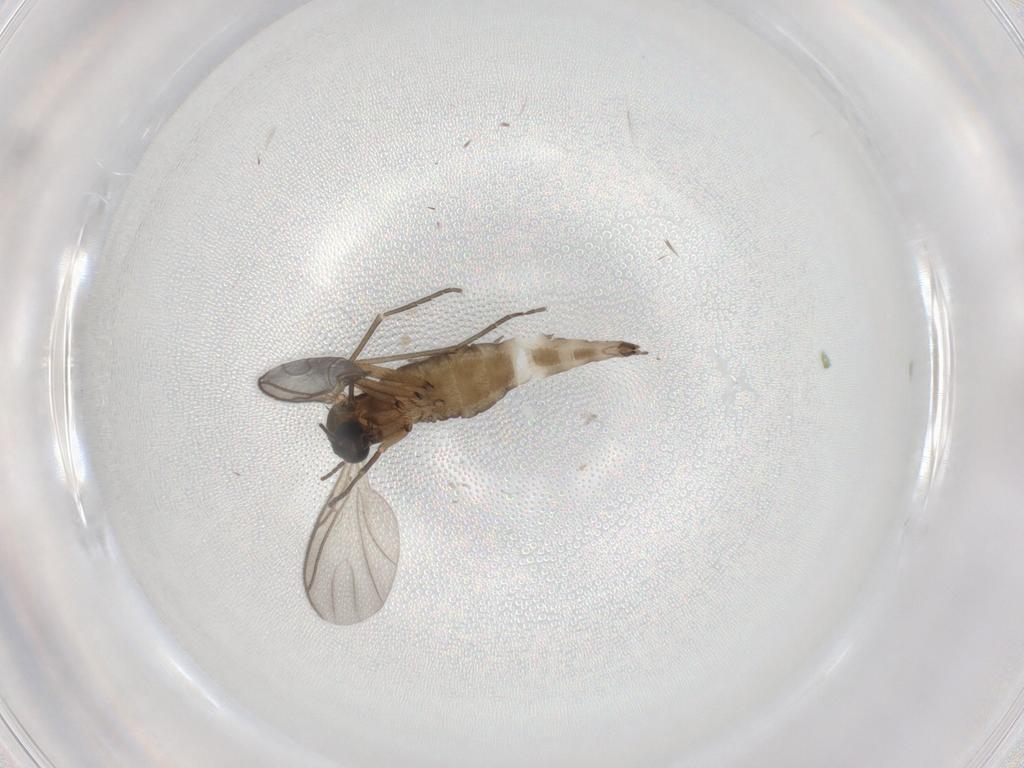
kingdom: Animalia
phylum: Arthropoda
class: Insecta
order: Diptera
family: Sciaridae
